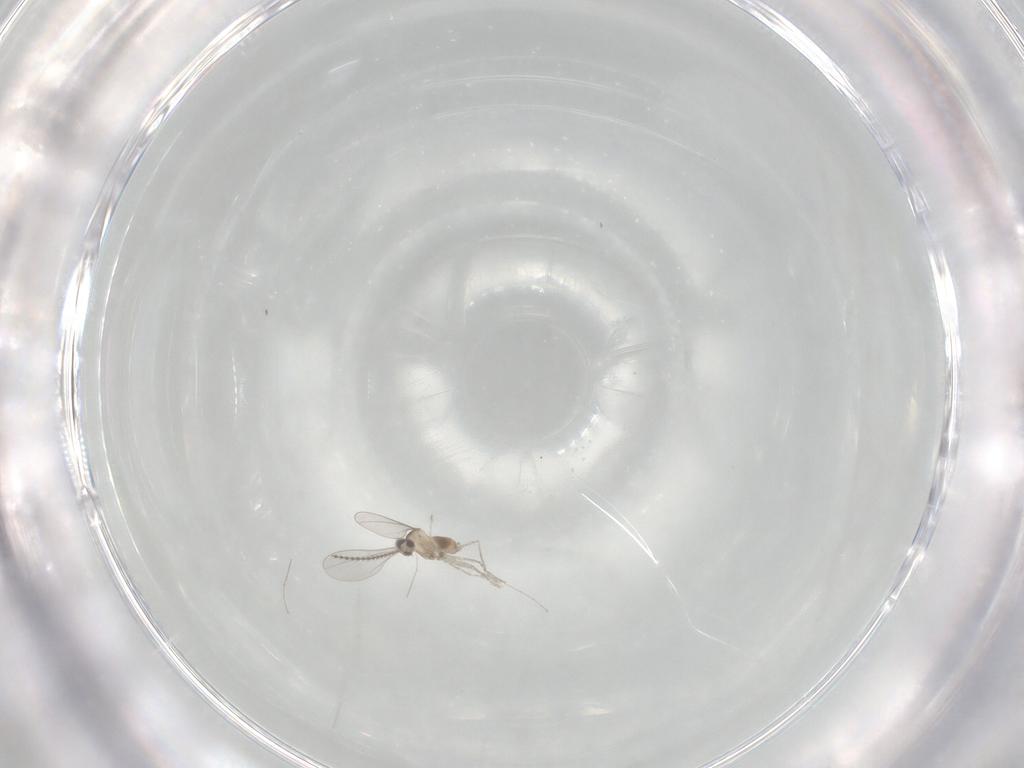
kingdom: Animalia
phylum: Arthropoda
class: Insecta
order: Diptera
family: Cecidomyiidae
